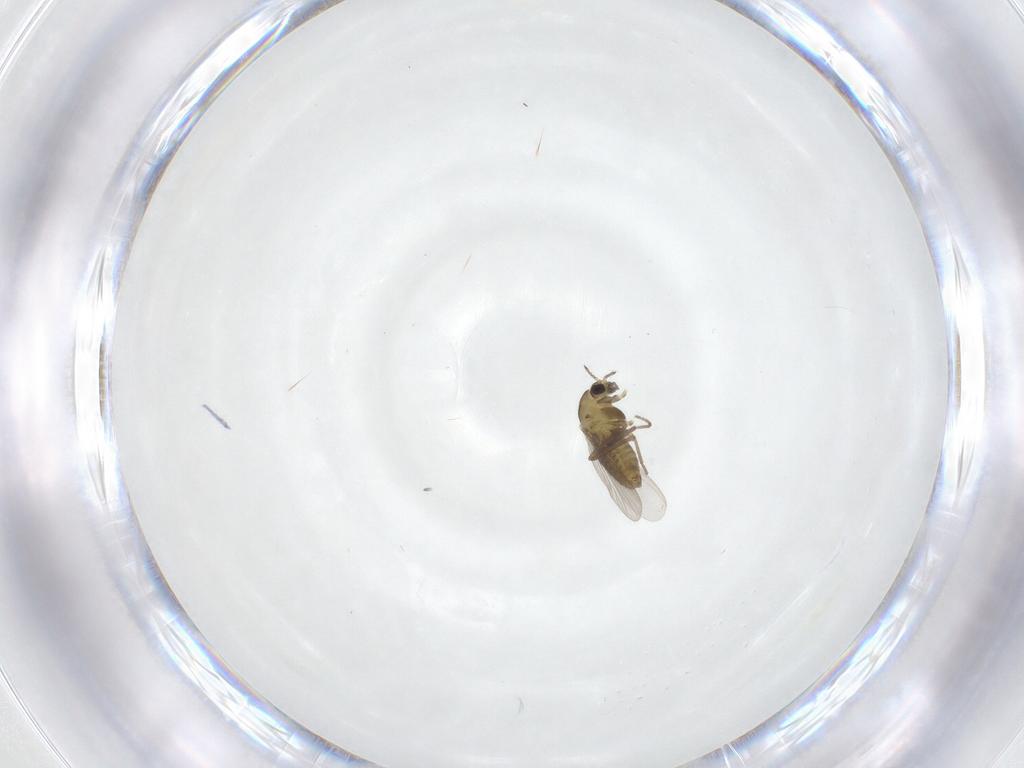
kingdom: Animalia
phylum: Arthropoda
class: Insecta
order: Diptera
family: Chironomidae
